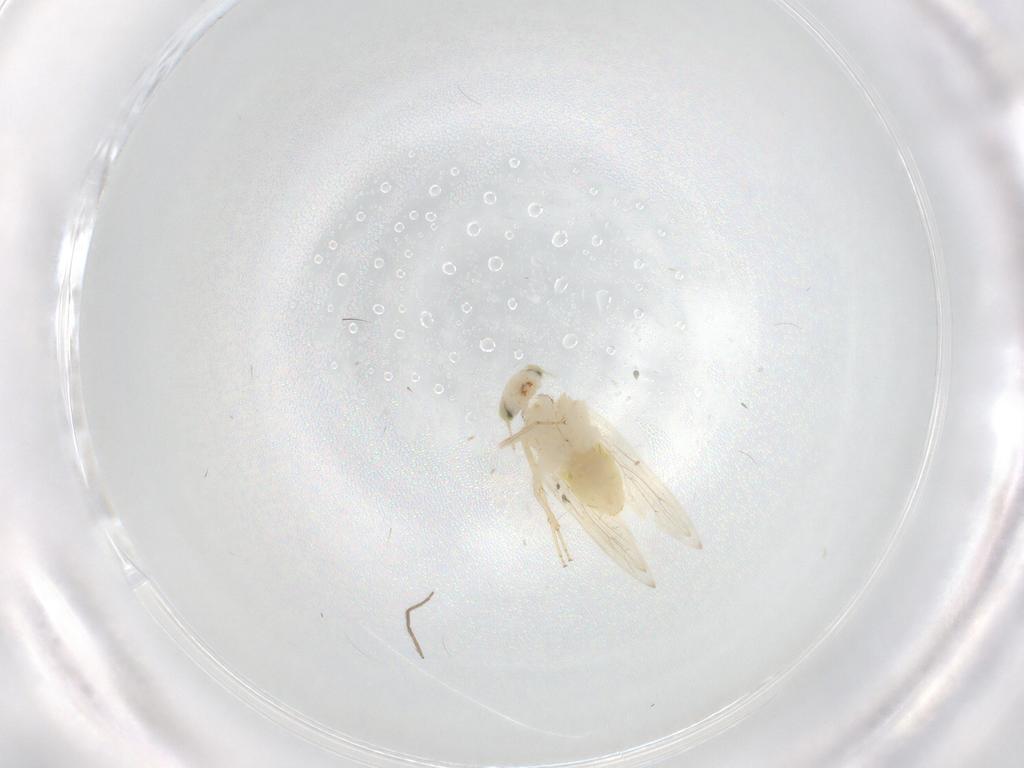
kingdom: Animalia
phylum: Arthropoda
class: Insecta
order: Psocodea
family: Lepidopsocidae
